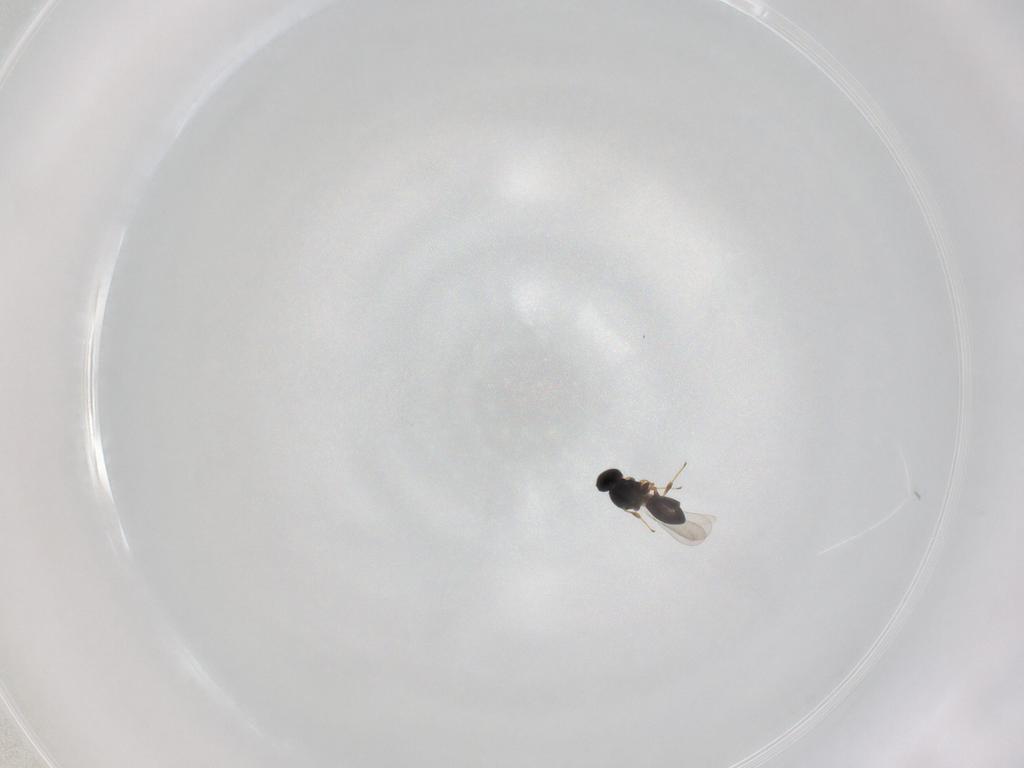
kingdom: Animalia
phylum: Arthropoda
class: Insecta
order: Hymenoptera
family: Platygastridae
